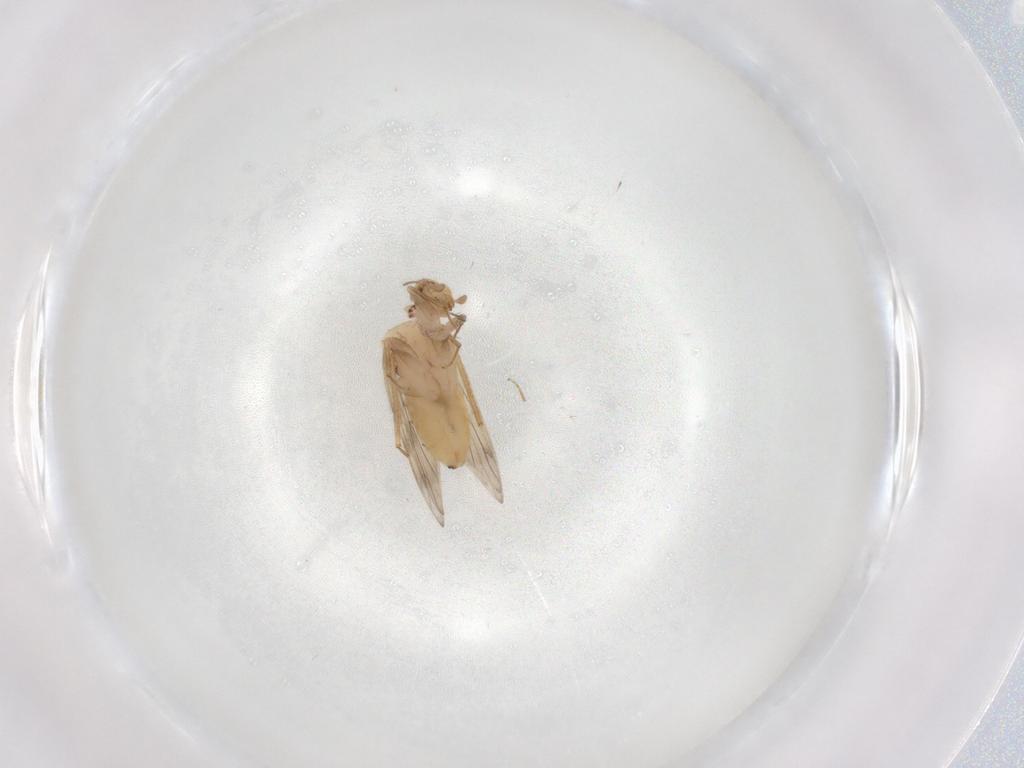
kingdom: Animalia
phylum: Arthropoda
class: Insecta
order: Psocodea
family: Lepidopsocidae
